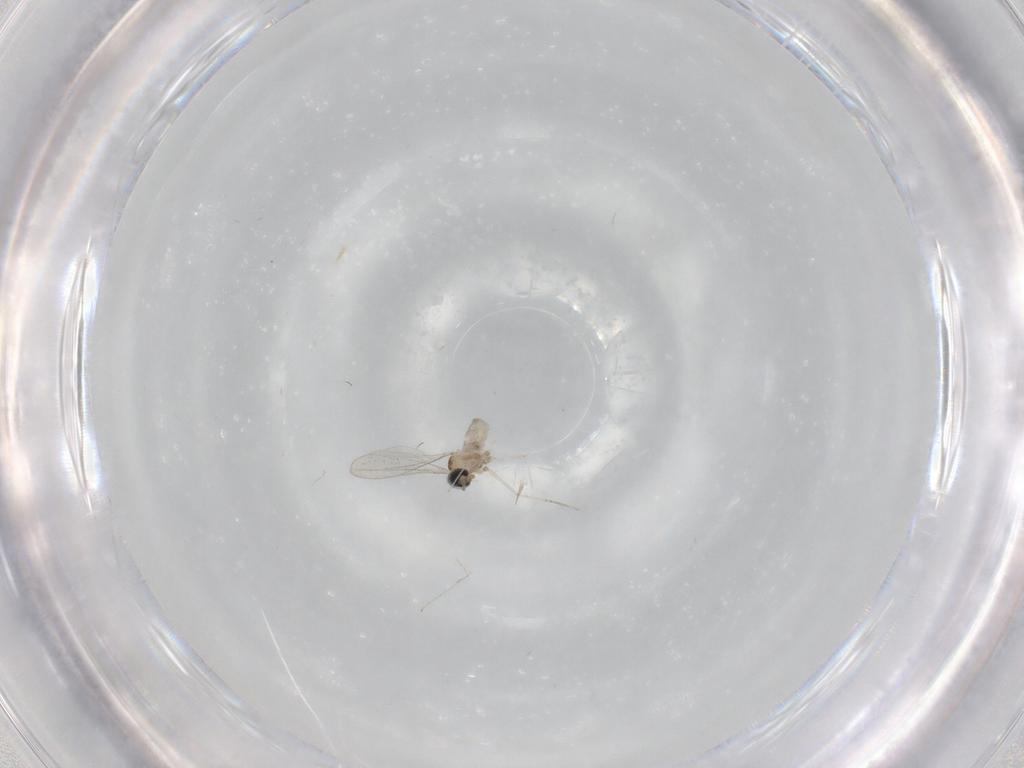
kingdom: Animalia
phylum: Arthropoda
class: Insecta
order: Diptera
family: Cecidomyiidae
